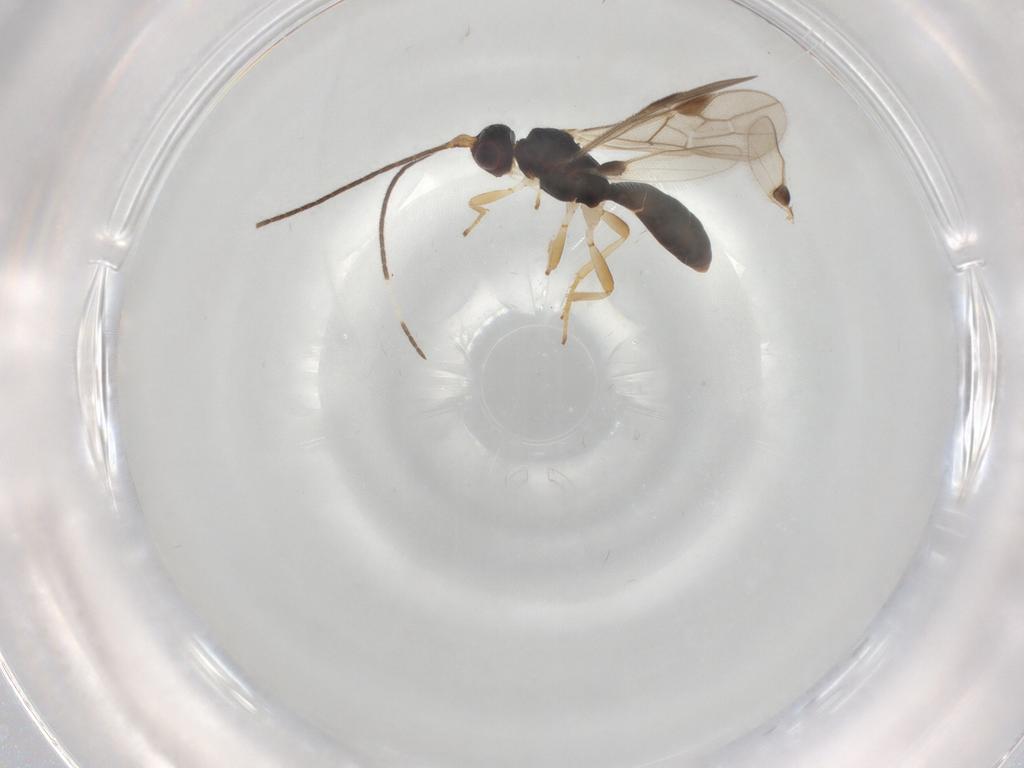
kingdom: Animalia
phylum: Arthropoda
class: Insecta
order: Hymenoptera
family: Braconidae
